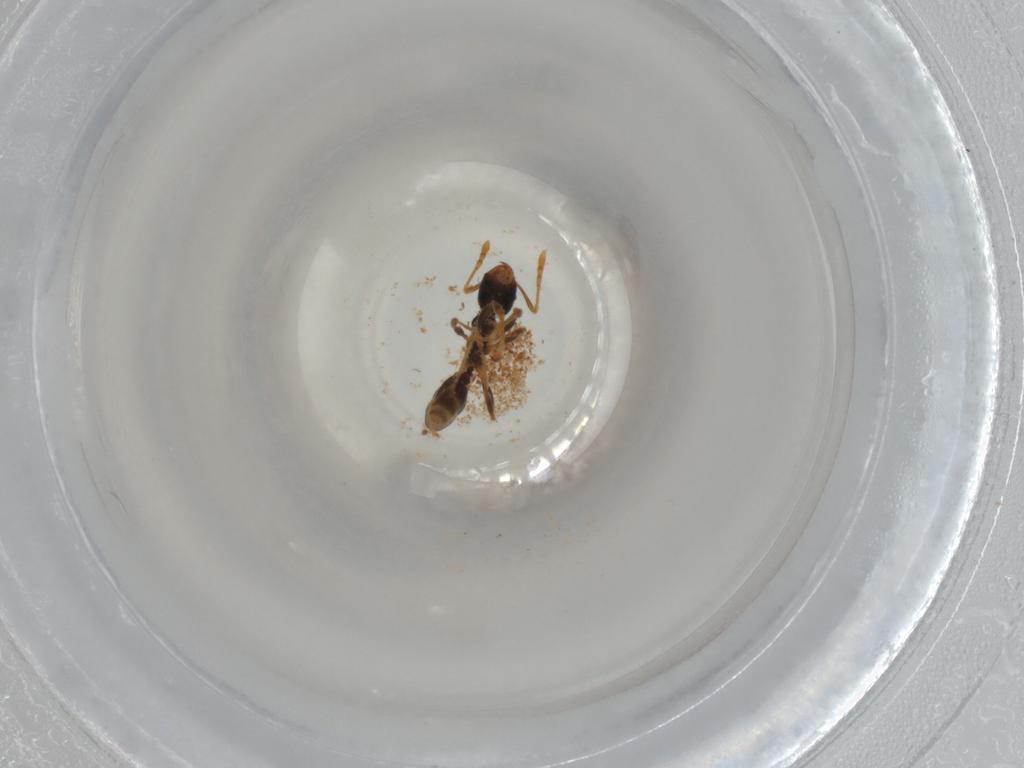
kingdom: Animalia
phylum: Arthropoda
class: Insecta
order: Hymenoptera
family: Formicidae
